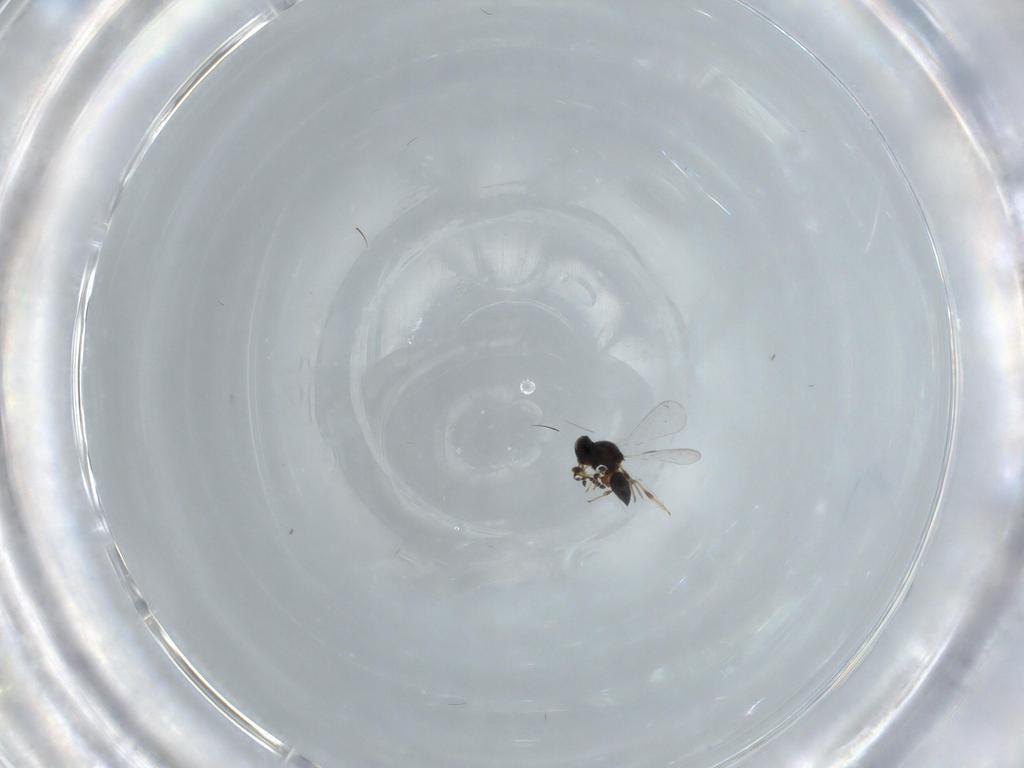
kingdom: Animalia
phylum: Arthropoda
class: Insecta
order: Hymenoptera
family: Platygastridae
